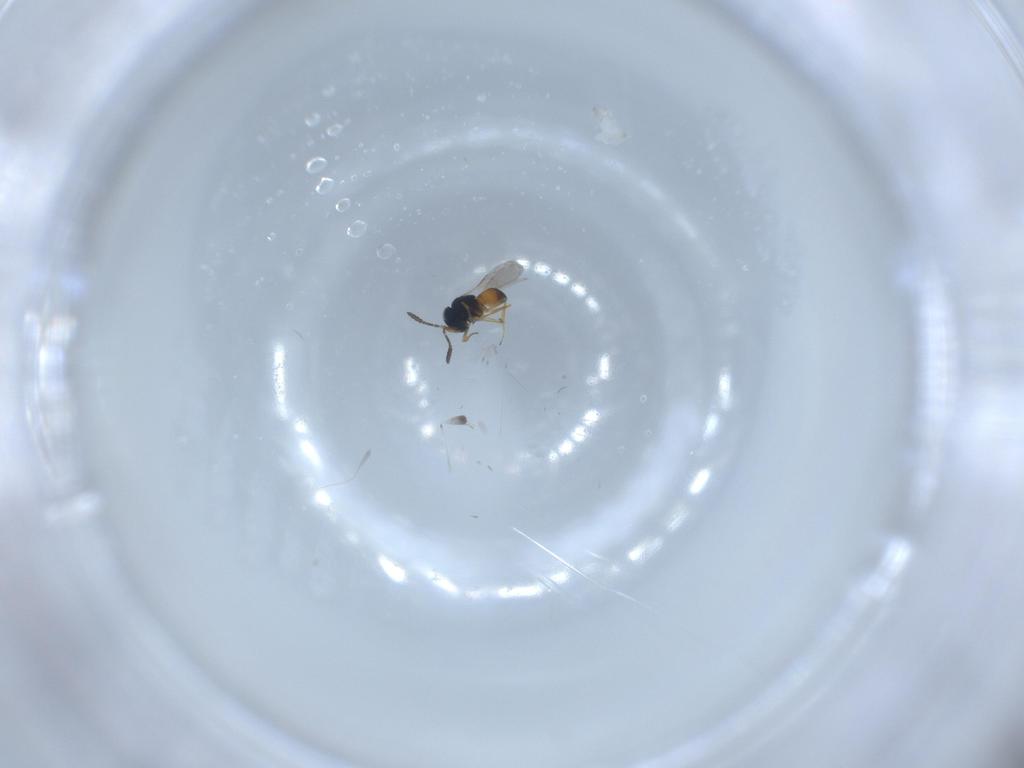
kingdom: Animalia
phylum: Arthropoda
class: Insecta
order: Hymenoptera
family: Scelionidae
